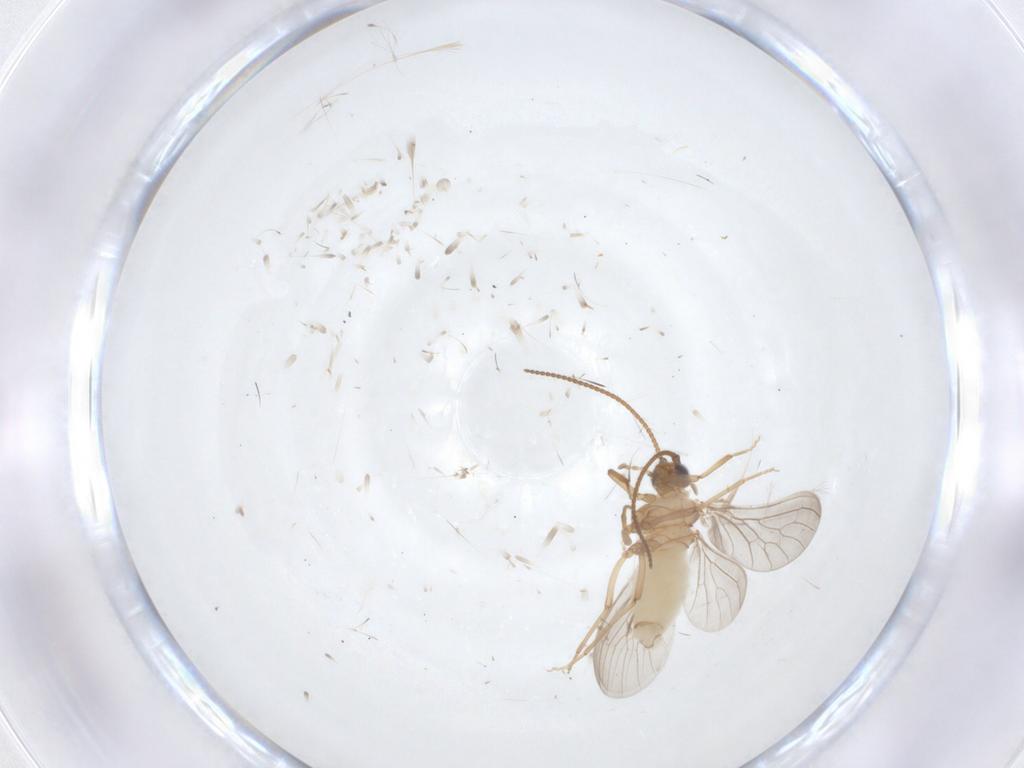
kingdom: Animalia
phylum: Arthropoda
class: Insecta
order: Neuroptera
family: Coniopterygidae
